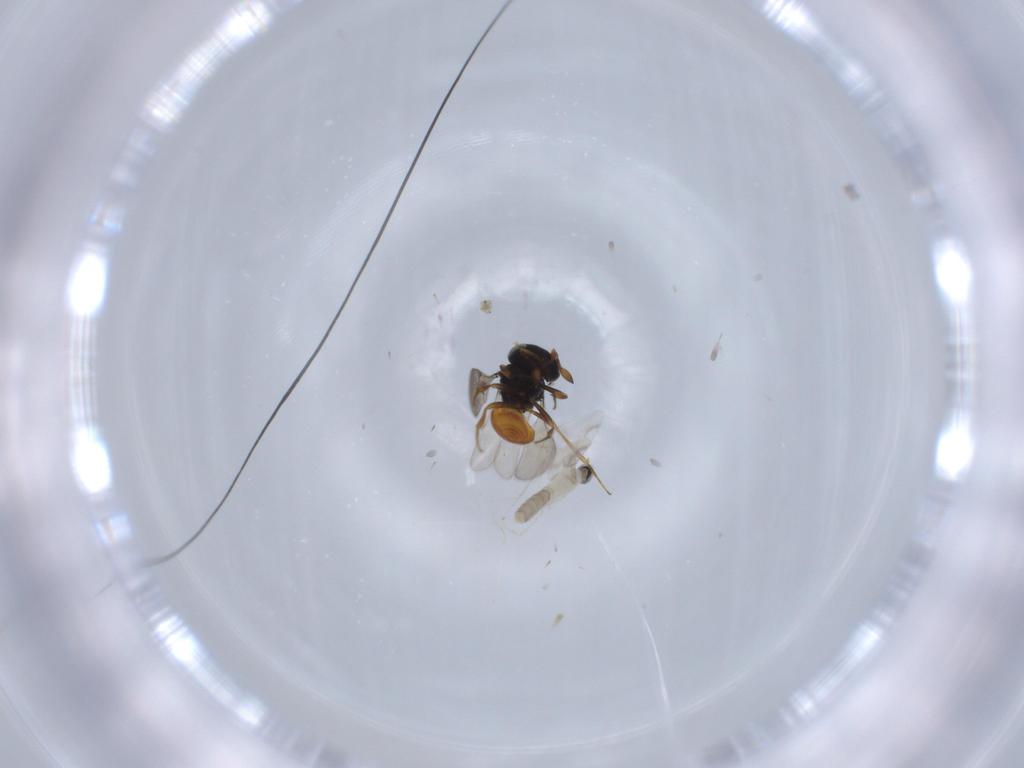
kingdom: Animalia
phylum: Arthropoda
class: Insecta
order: Hymenoptera
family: Scelionidae
